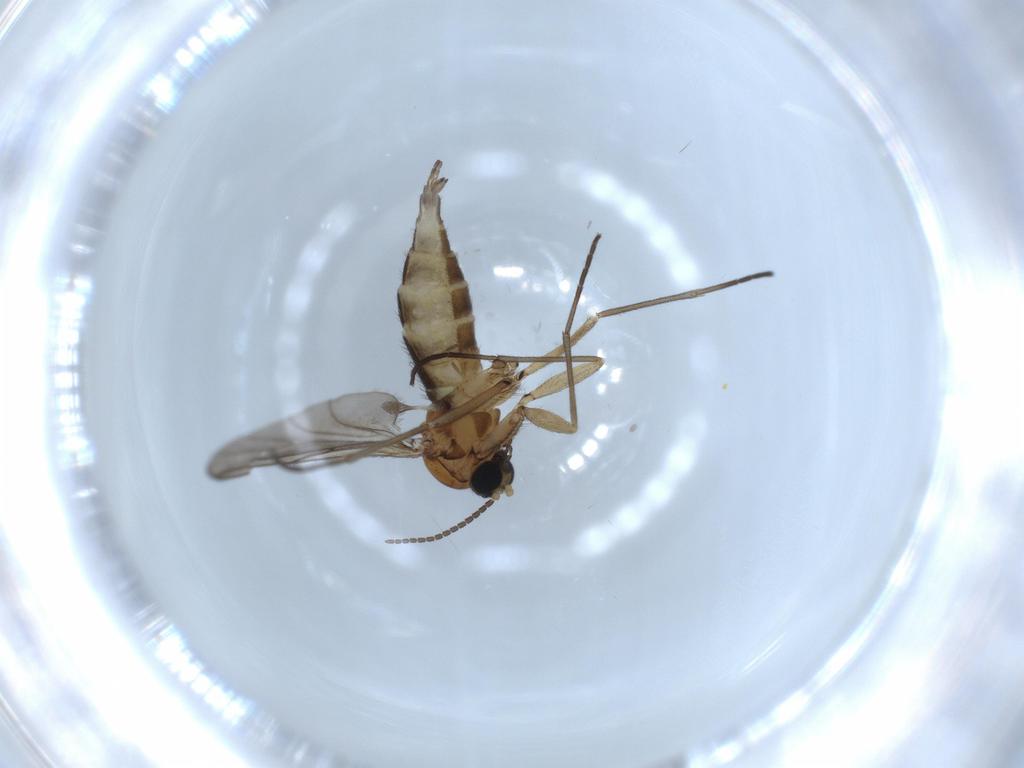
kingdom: Animalia
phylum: Arthropoda
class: Insecta
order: Diptera
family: Sciaridae
